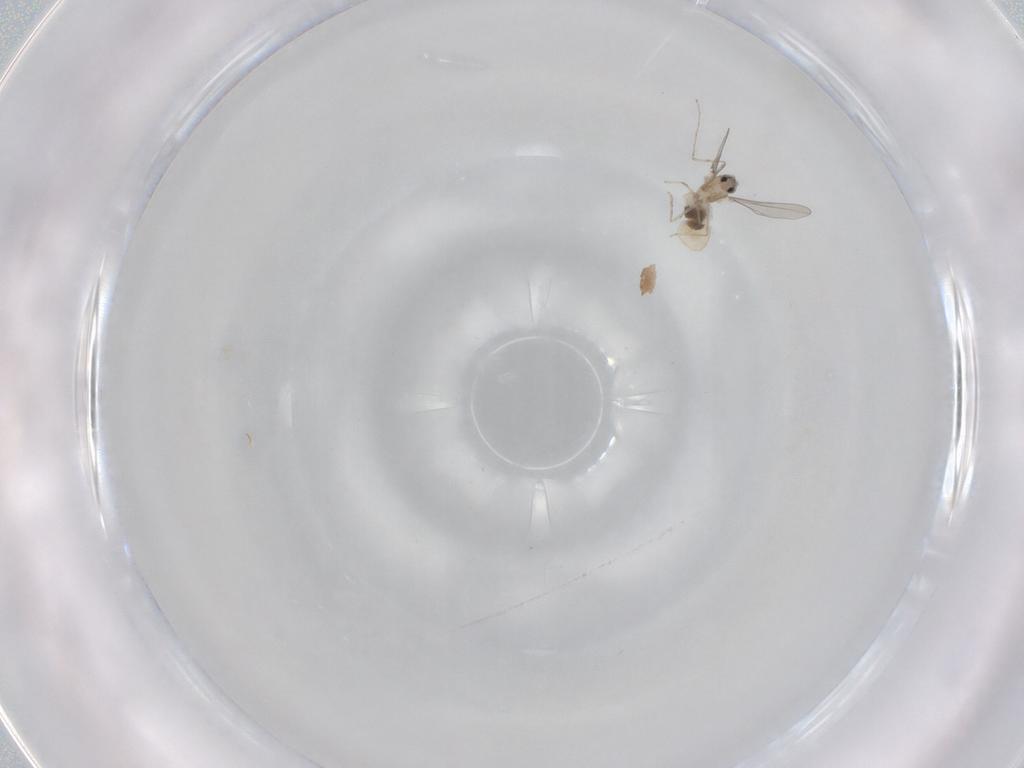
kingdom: Animalia
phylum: Arthropoda
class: Insecta
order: Diptera
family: Cecidomyiidae
